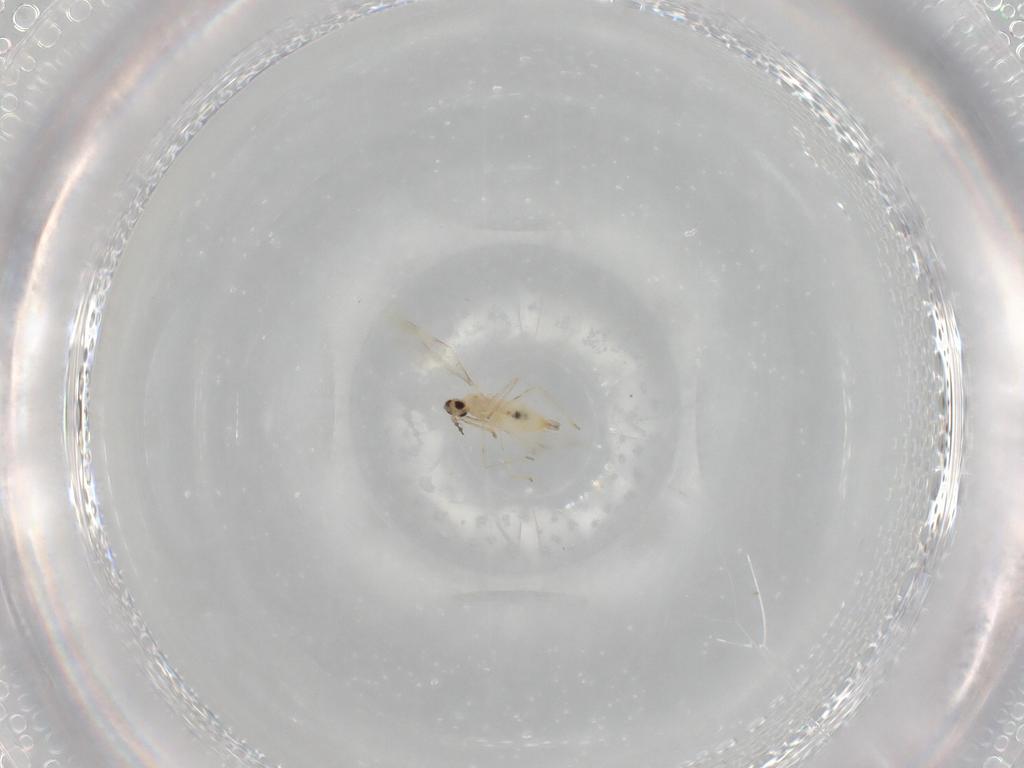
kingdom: Animalia
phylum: Arthropoda
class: Insecta
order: Diptera
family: Cecidomyiidae
